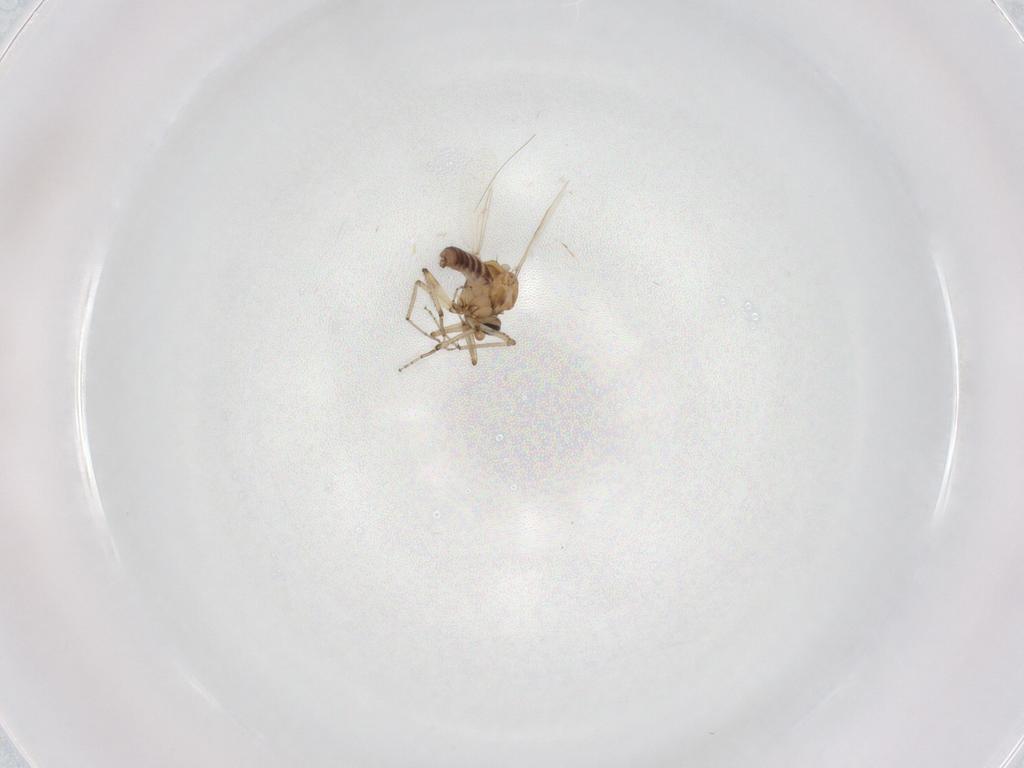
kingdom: Animalia
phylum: Arthropoda
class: Insecta
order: Diptera
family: Ceratopogonidae
